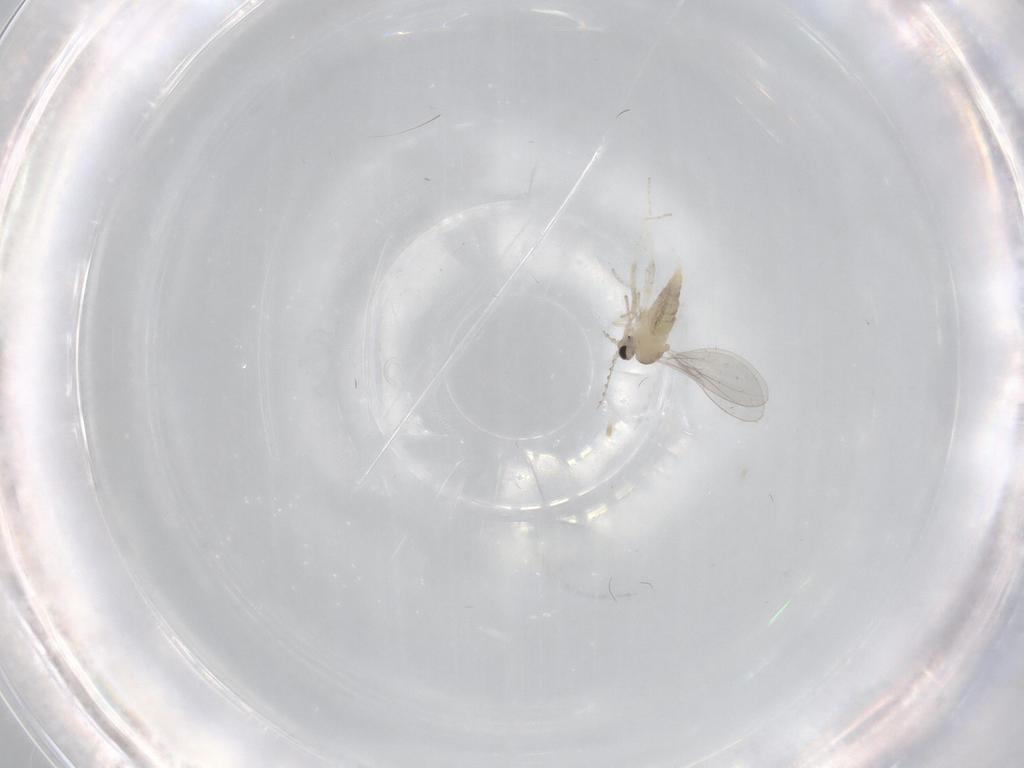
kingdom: Animalia
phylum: Arthropoda
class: Insecta
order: Diptera
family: Cecidomyiidae
